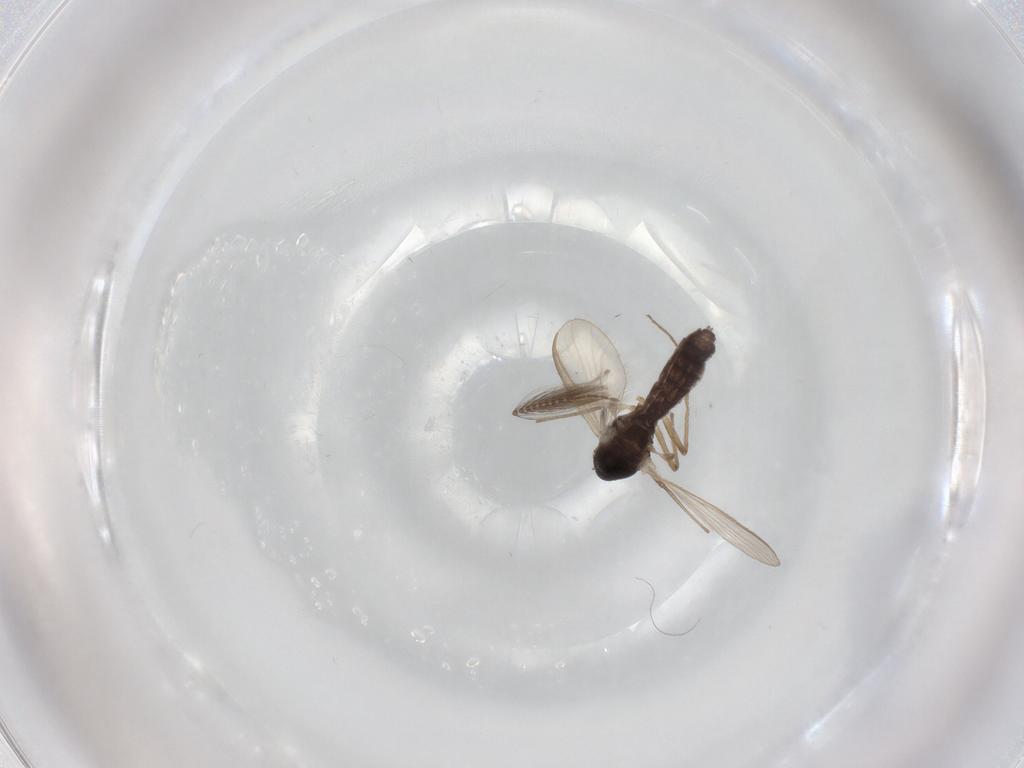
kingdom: Animalia
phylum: Arthropoda
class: Insecta
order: Diptera
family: Chironomidae
